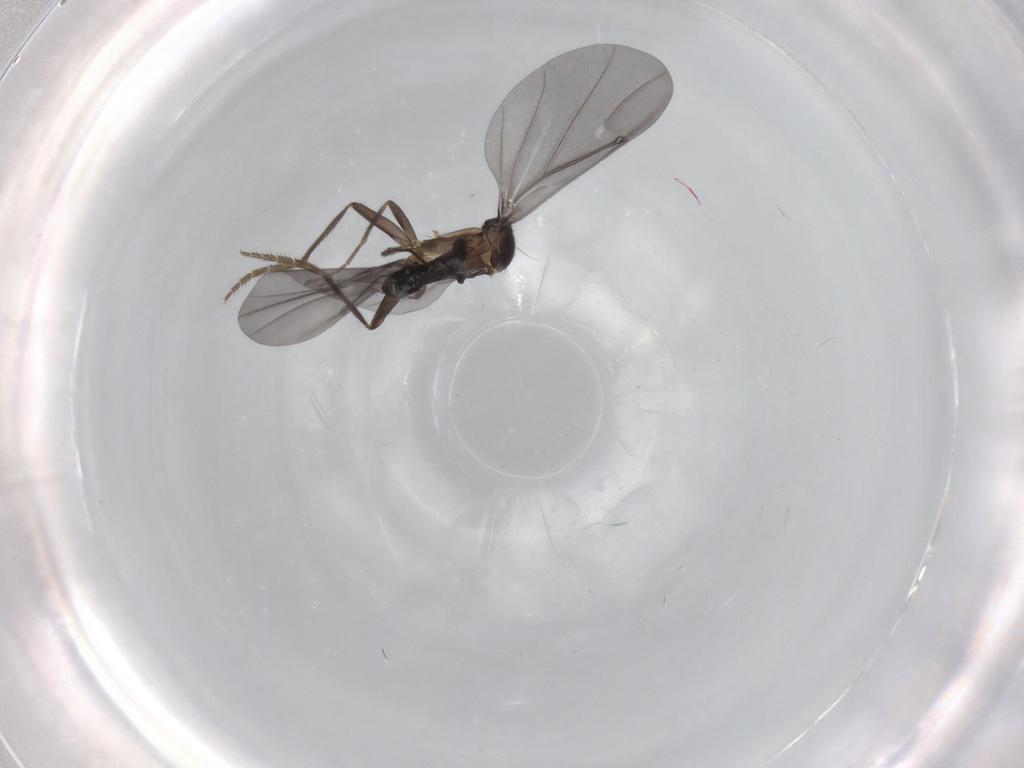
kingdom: Animalia
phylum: Arthropoda
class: Insecta
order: Diptera
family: Phoridae
